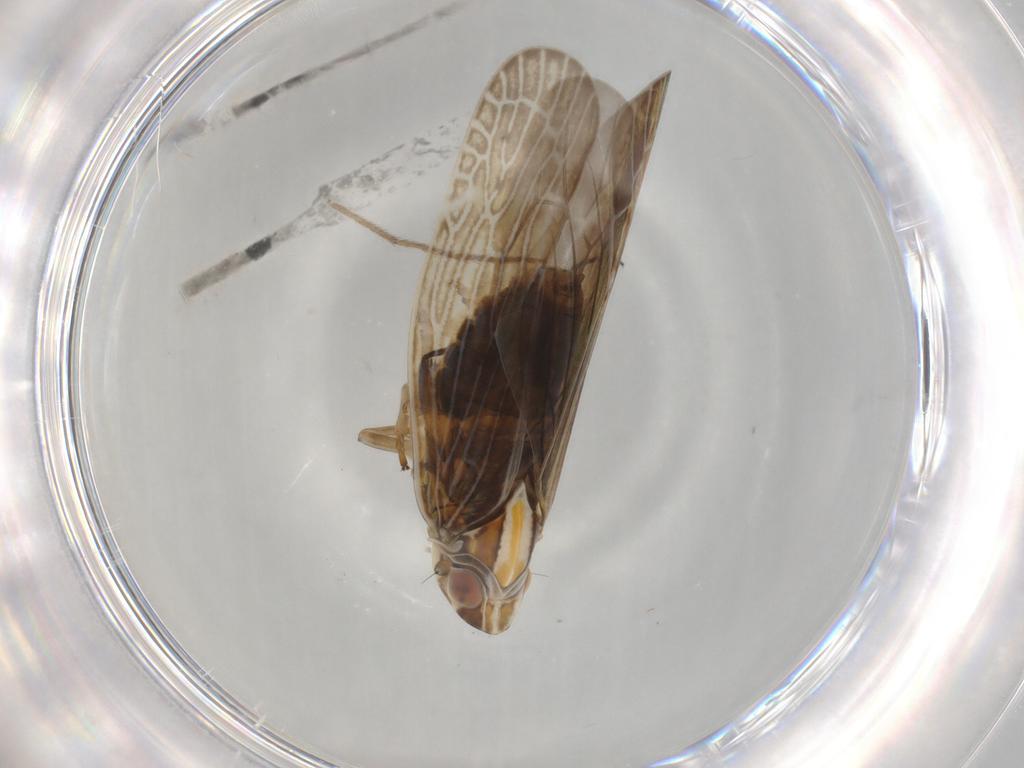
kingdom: Animalia
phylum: Arthropoda
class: Insecta
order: Hemiptera
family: Achilidae
